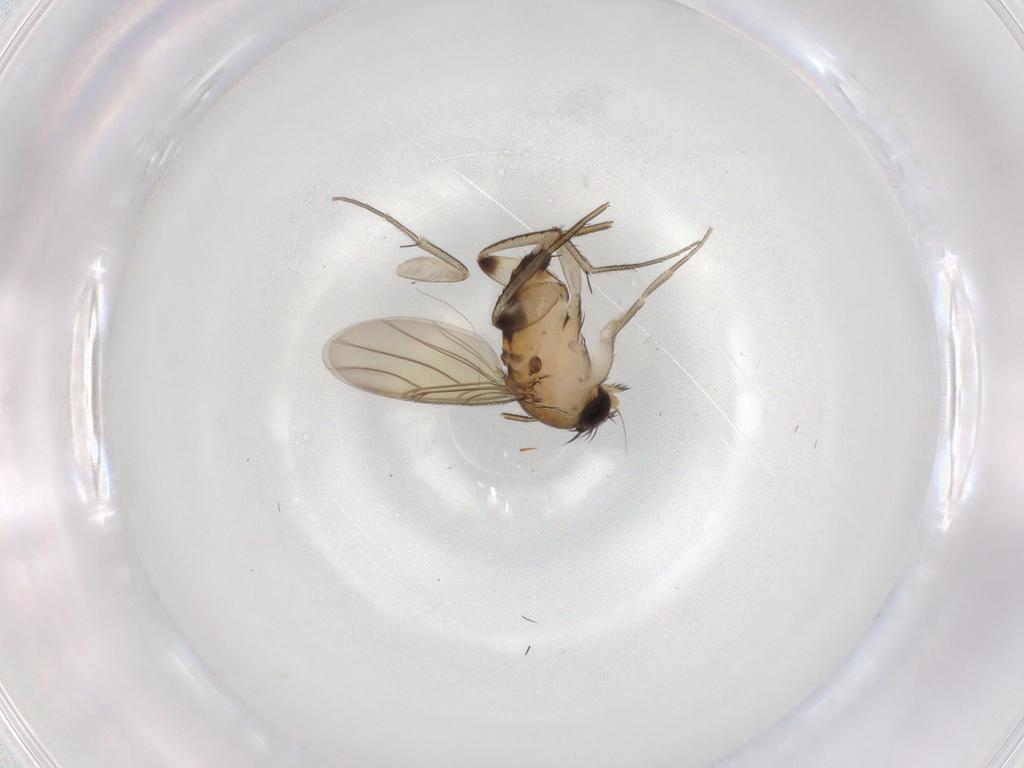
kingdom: Animalia
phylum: Arthropoda
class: Insecta
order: Diptera
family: Phoridae
